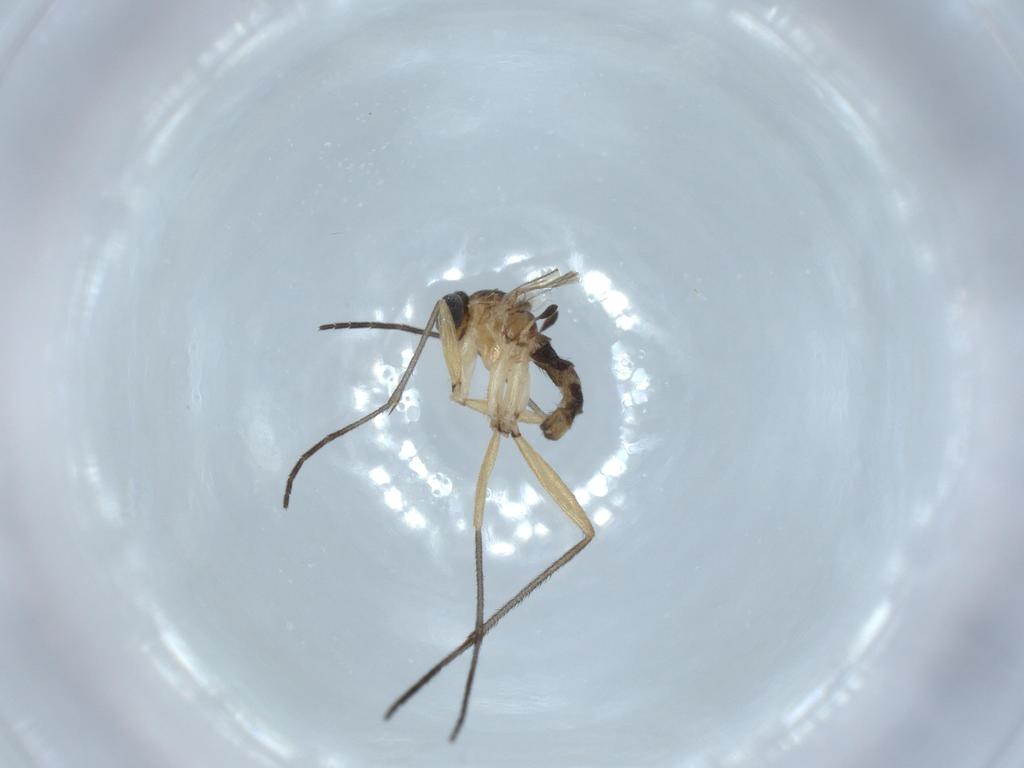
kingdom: Animalia
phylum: Arthropoda
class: Insecta
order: Diptera
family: Sciaridae
